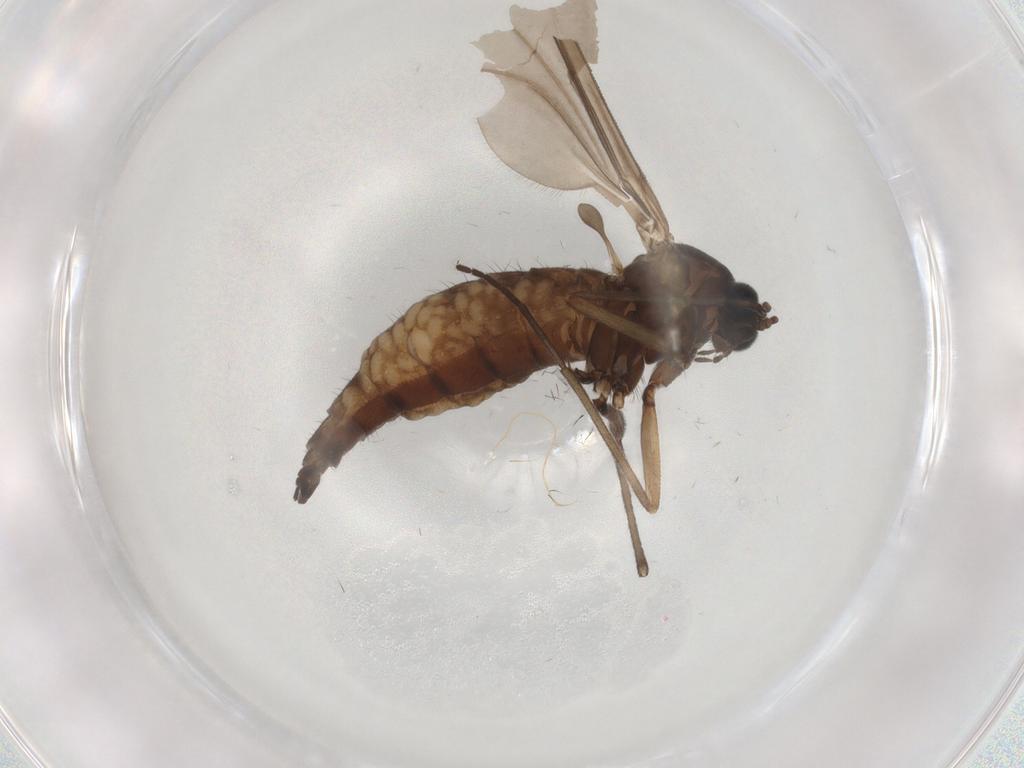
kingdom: Animalia
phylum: Arthropoda
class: Insecta
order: Diptera
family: Sciaridae
